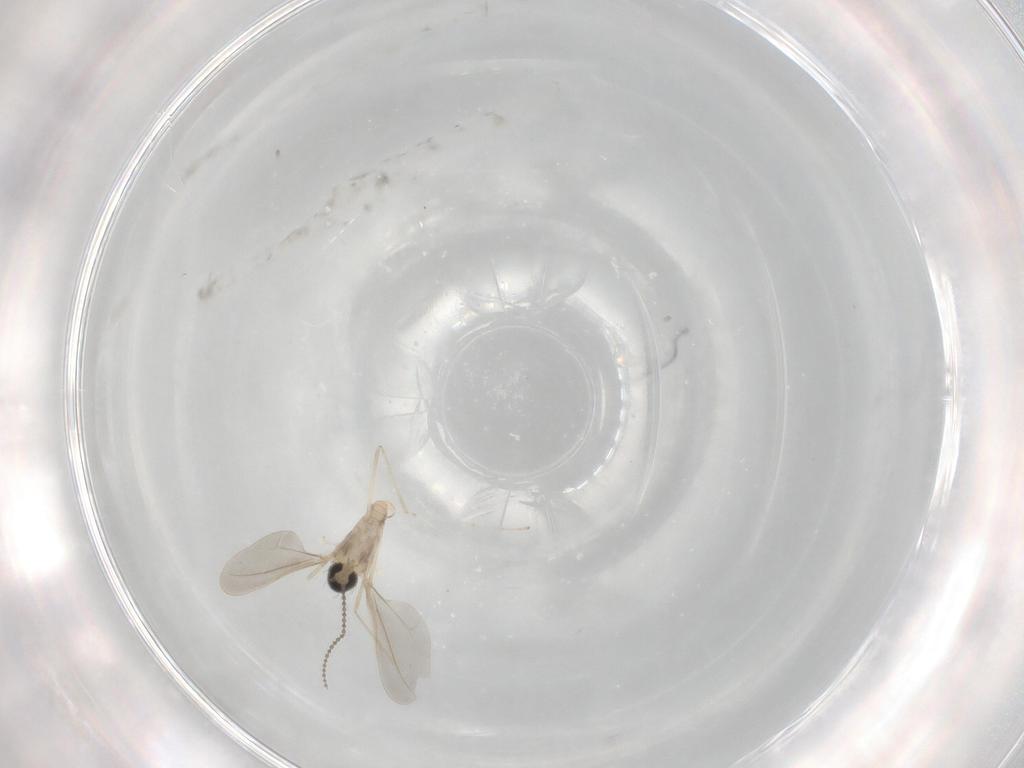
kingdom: Animalia
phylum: Arthropoda
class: Insecta
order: Diptera
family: Cecidomyiidae
